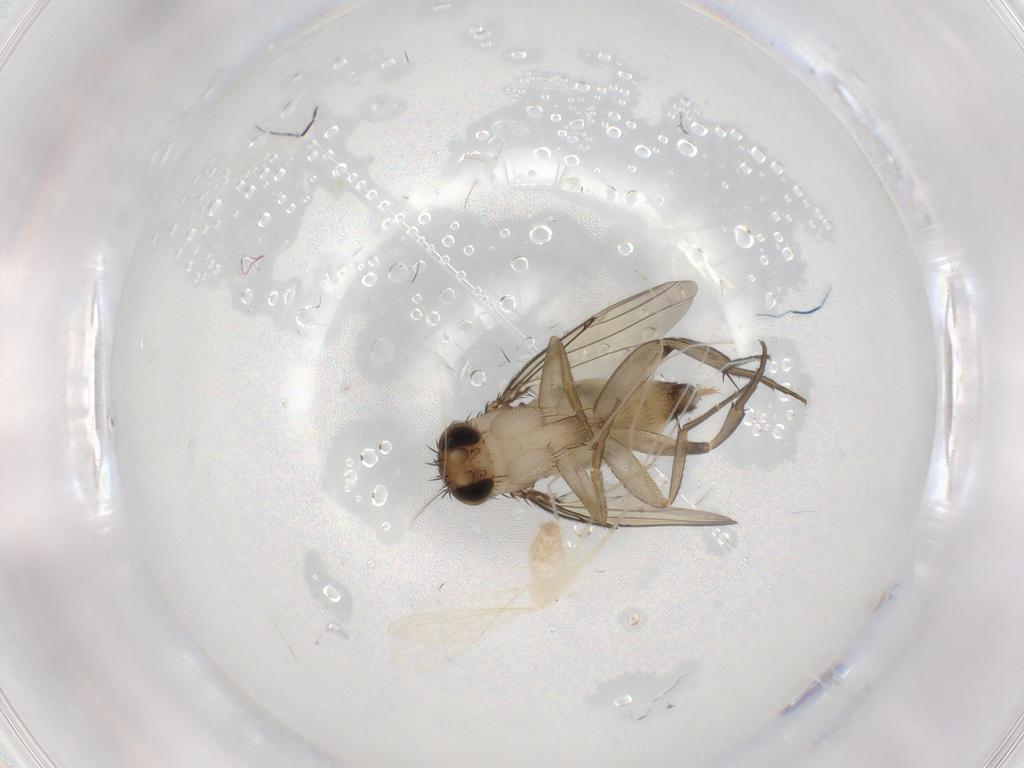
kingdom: Animalia
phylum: Arthropoda
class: Insecta
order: Diptera
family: Phoridae
